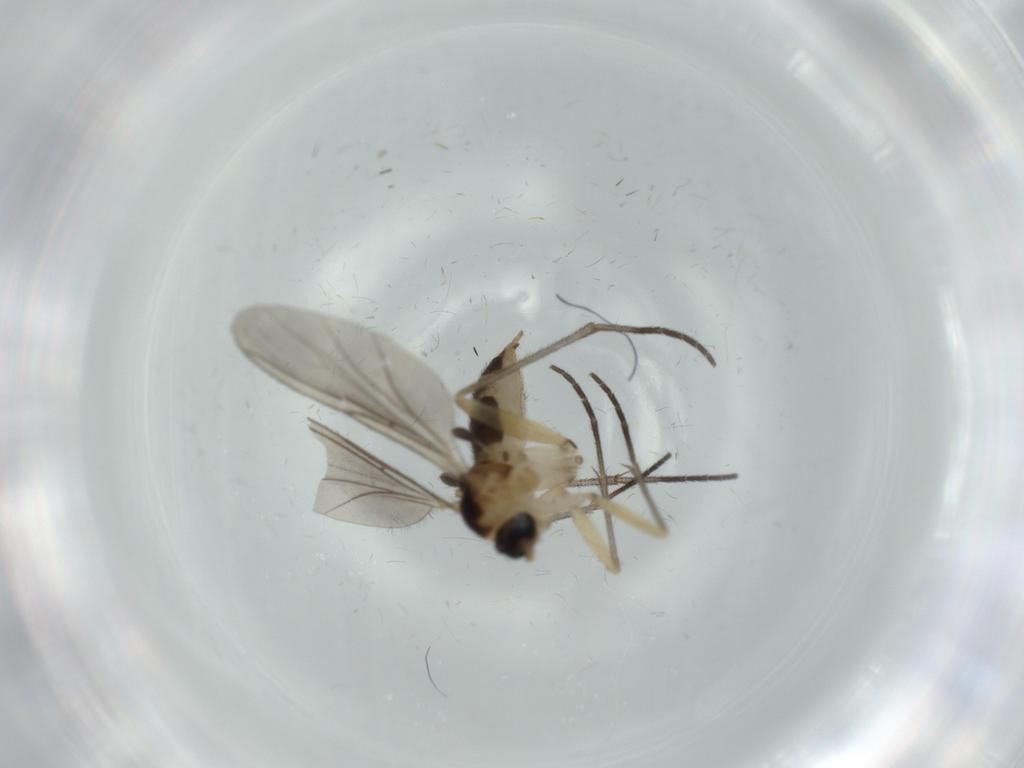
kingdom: Animalia
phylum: Arthropoda
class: Insecta
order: Diptera
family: Sciaridae
